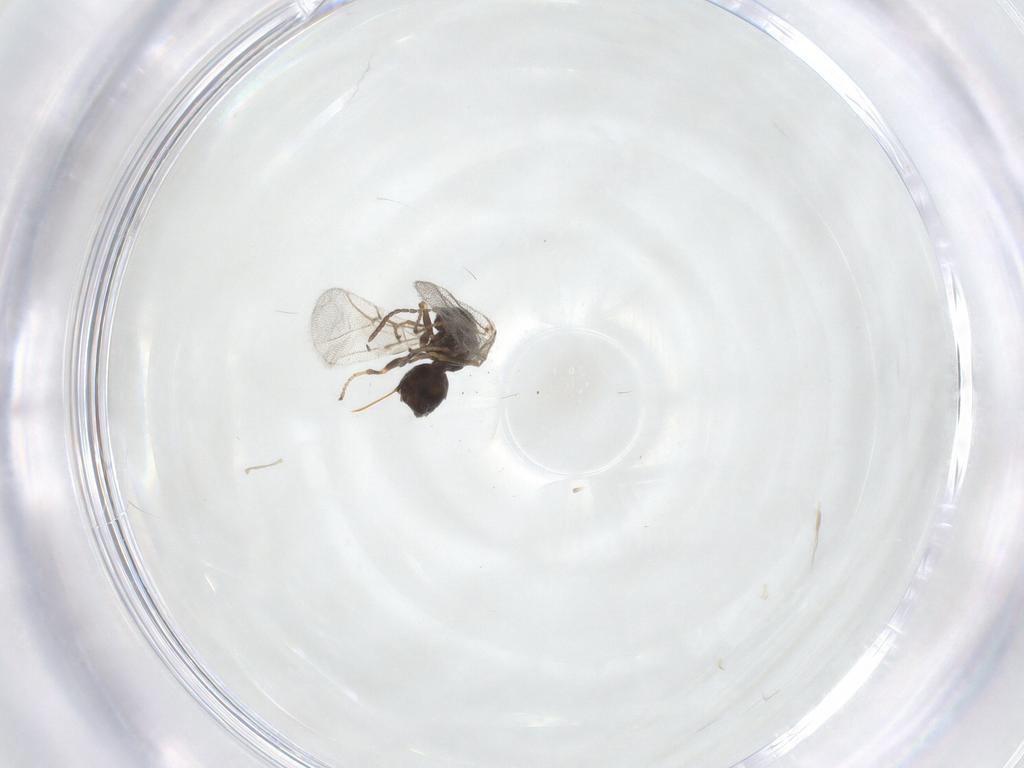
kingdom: Animalia
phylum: Arthropoda
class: Insecta
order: Hymenoptera
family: Cynipidae
